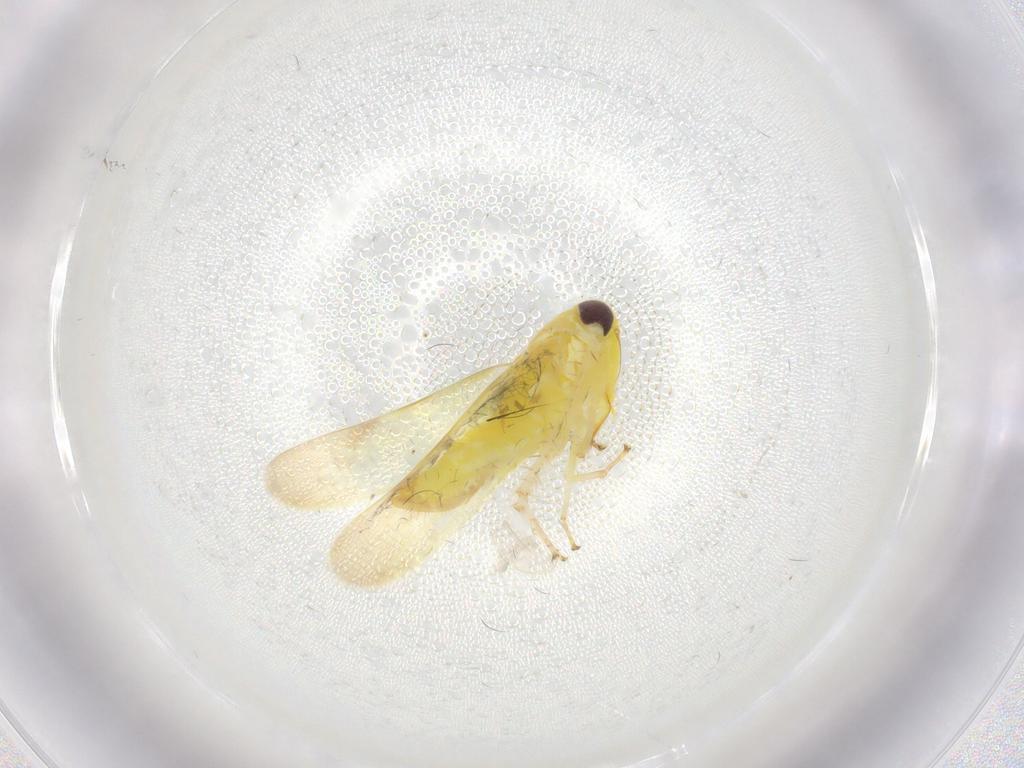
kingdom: Animalia
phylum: Arthropoda
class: Insecta
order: Hemiptera
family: Cicadellidae
